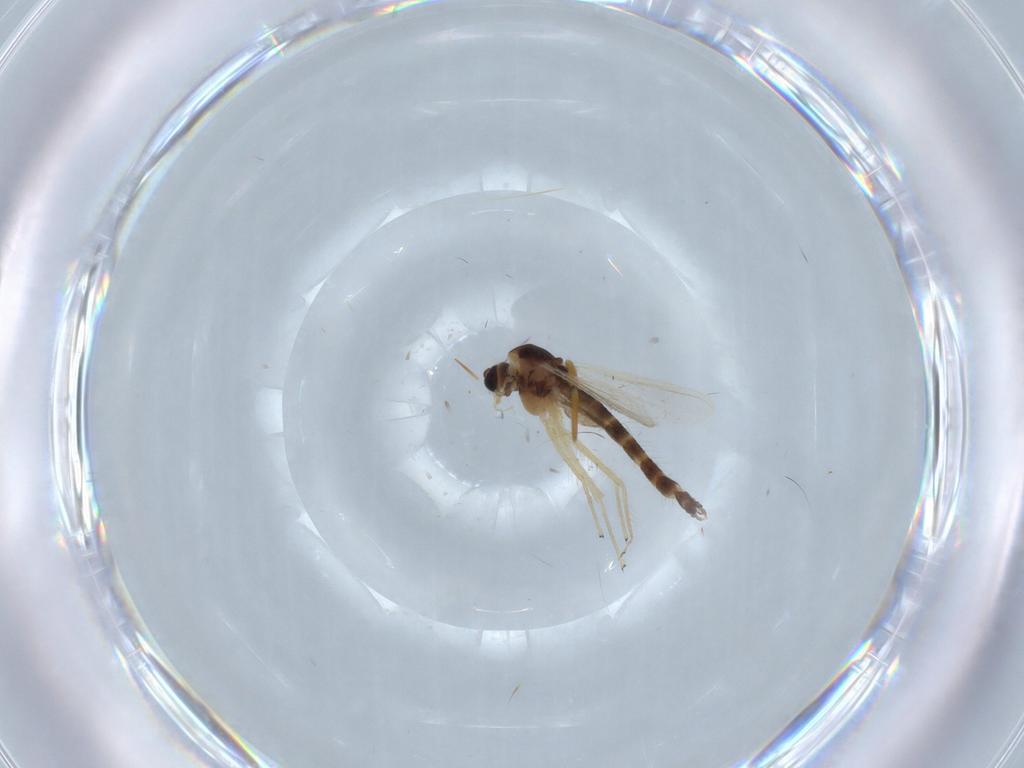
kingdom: Animalia
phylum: Arthropoda
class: Insecta
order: Diptera
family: Chironomidae
